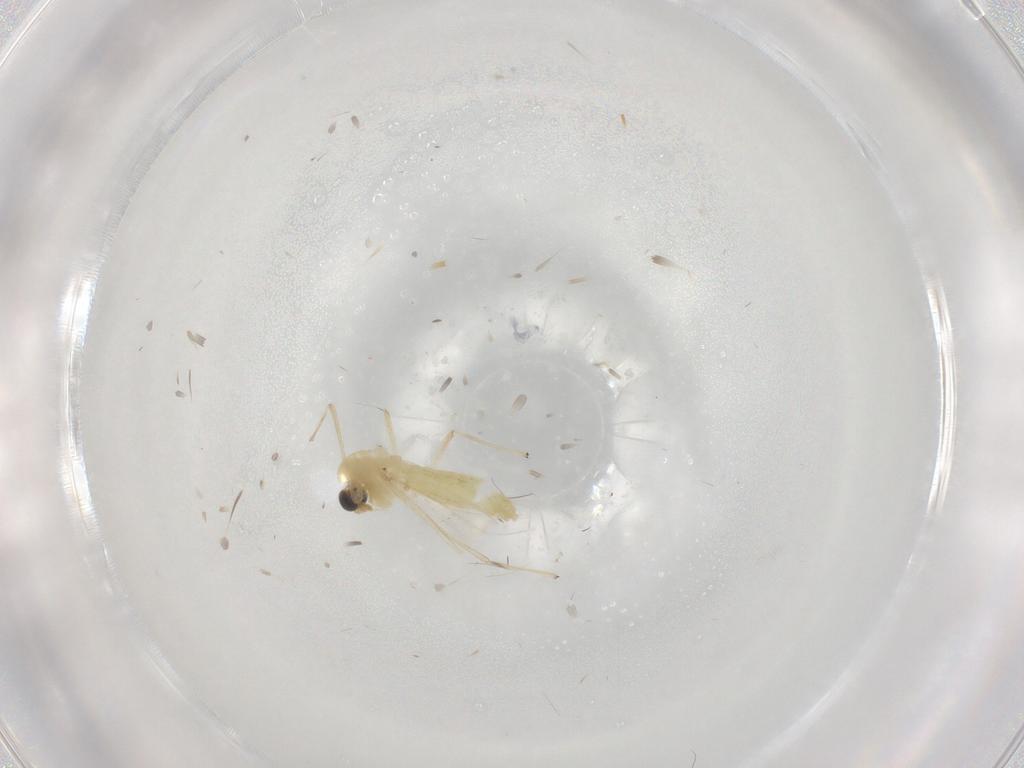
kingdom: Animalia
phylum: Arthropoda
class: Insecta
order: Diptera
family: Chironomidae
